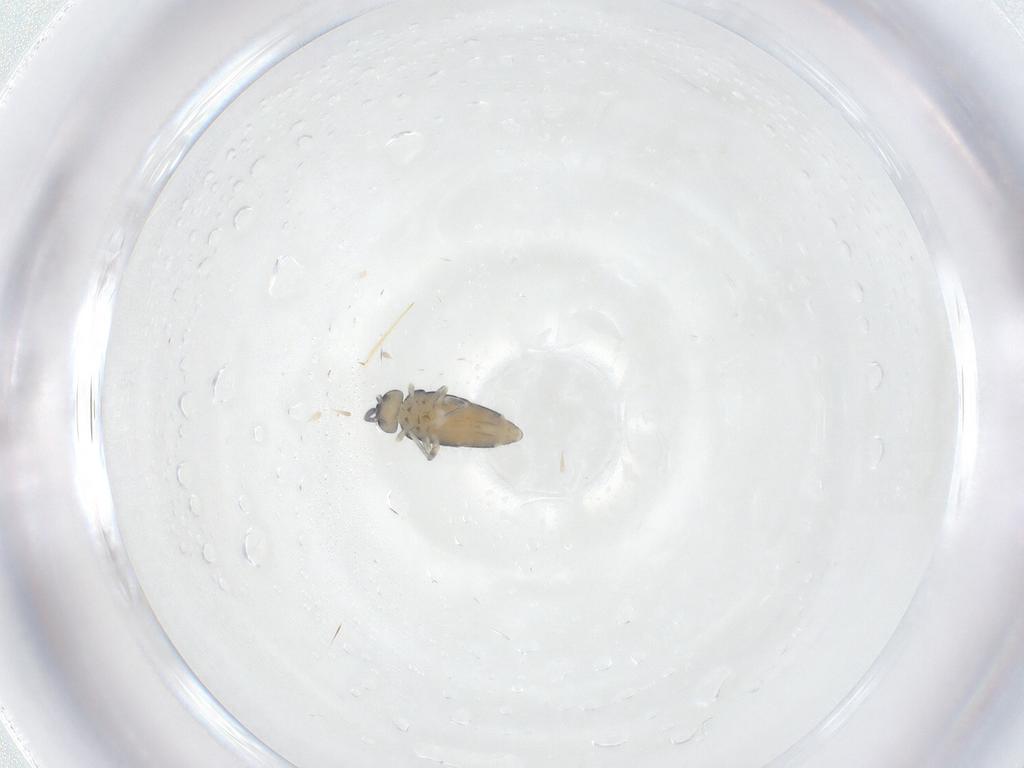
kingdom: Animalia
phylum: Arthropoda
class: Collembola
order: Entomobryomorpha
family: Entomobryidae
